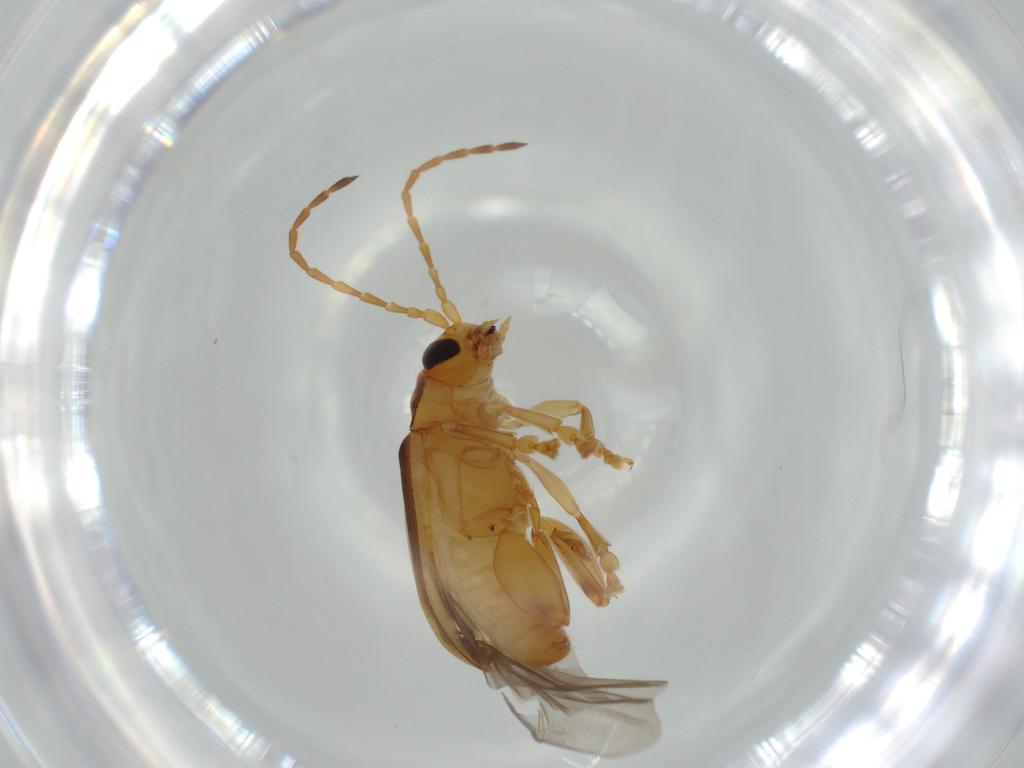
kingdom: Animalia
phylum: Arthropoda
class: Insecta
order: Coleoptera
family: Chrysomelidae
